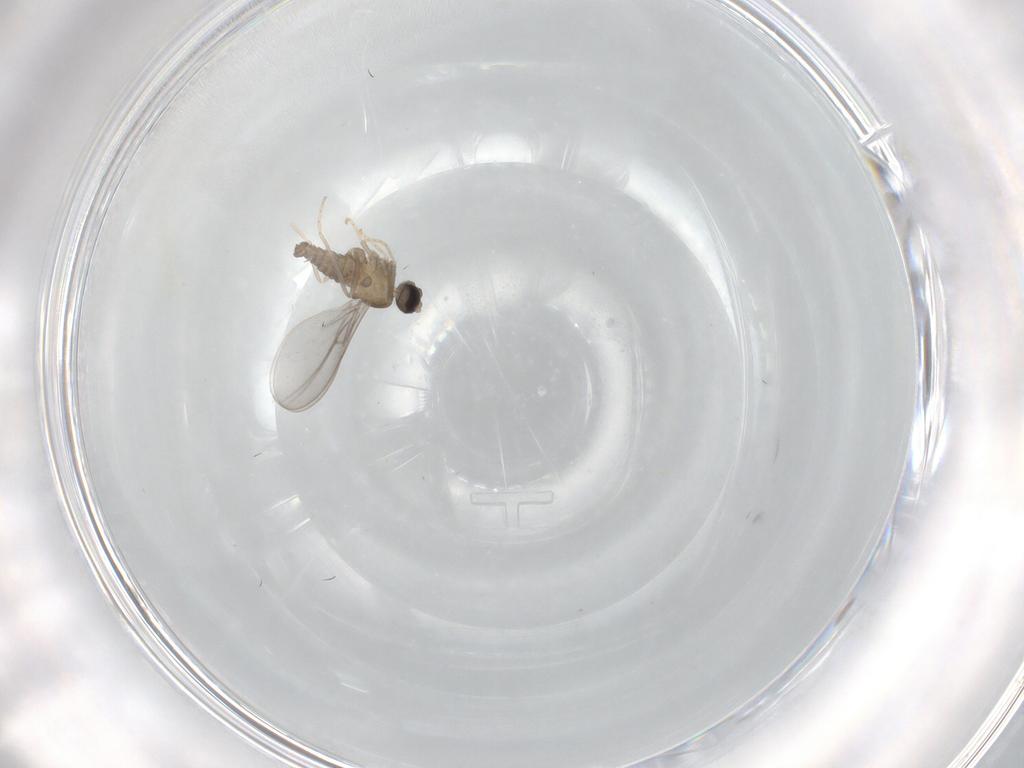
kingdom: Animalia
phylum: Arthropoda
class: Insecta
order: Diptera
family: Cecidomyiidae
